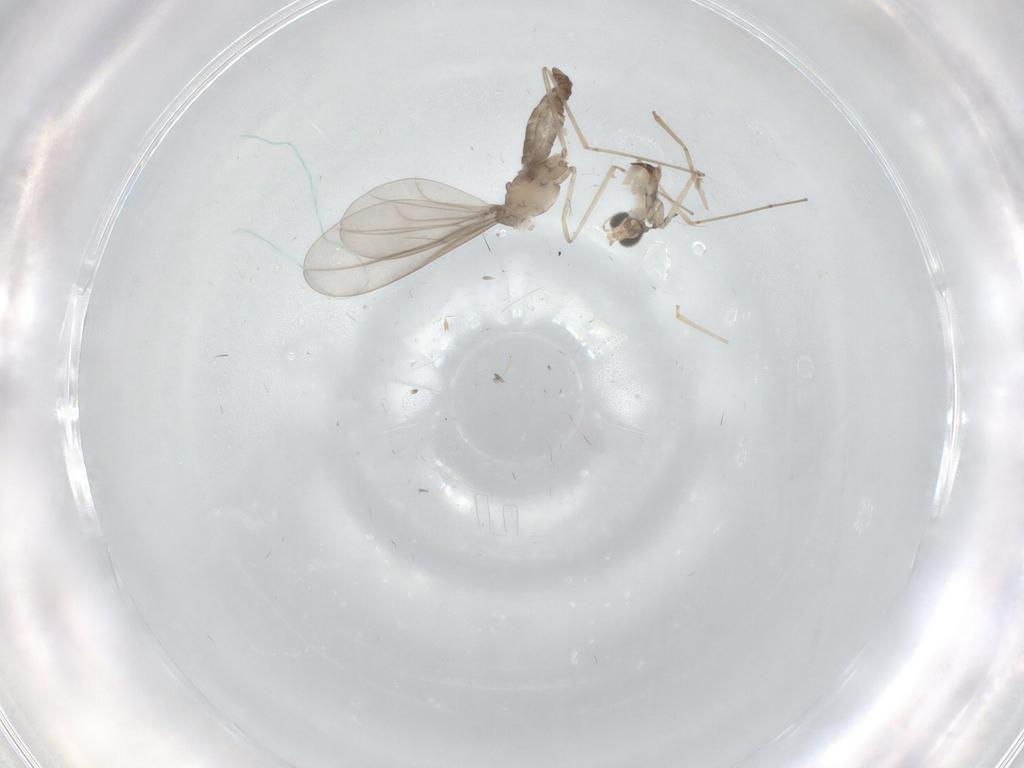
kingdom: Animalia
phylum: Arthropoda
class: Insecta
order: Diptera
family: Cecidomyiidae
